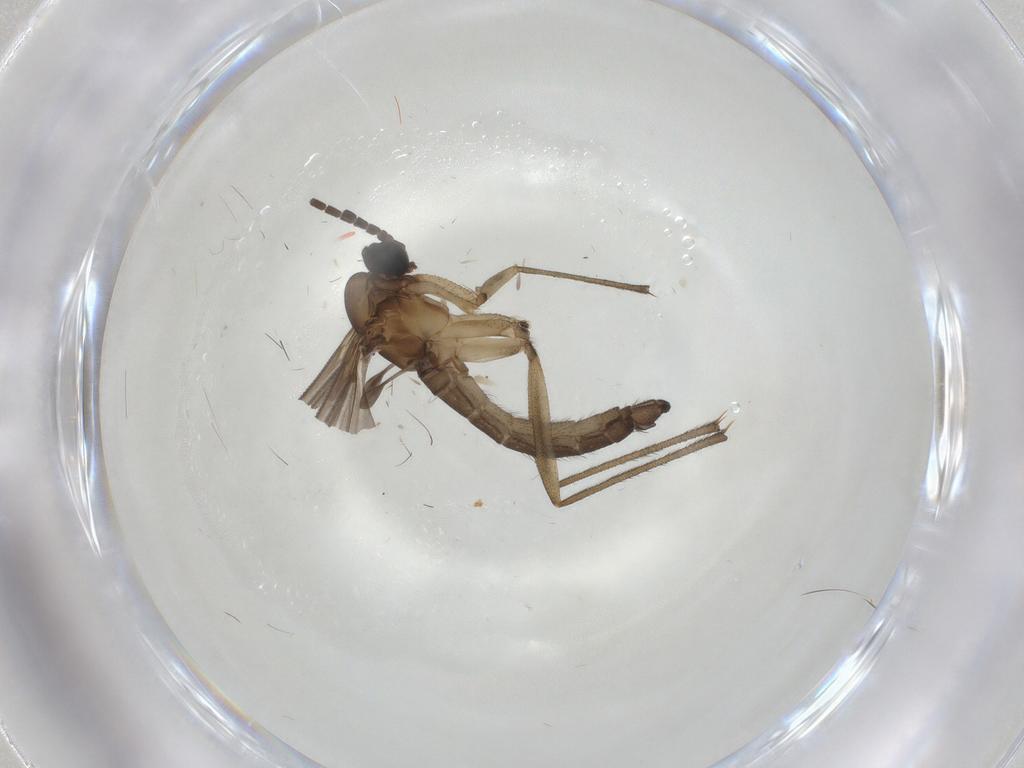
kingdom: Animalia
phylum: Arthropoda
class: Insecta
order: Diptera
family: Sciaridae
